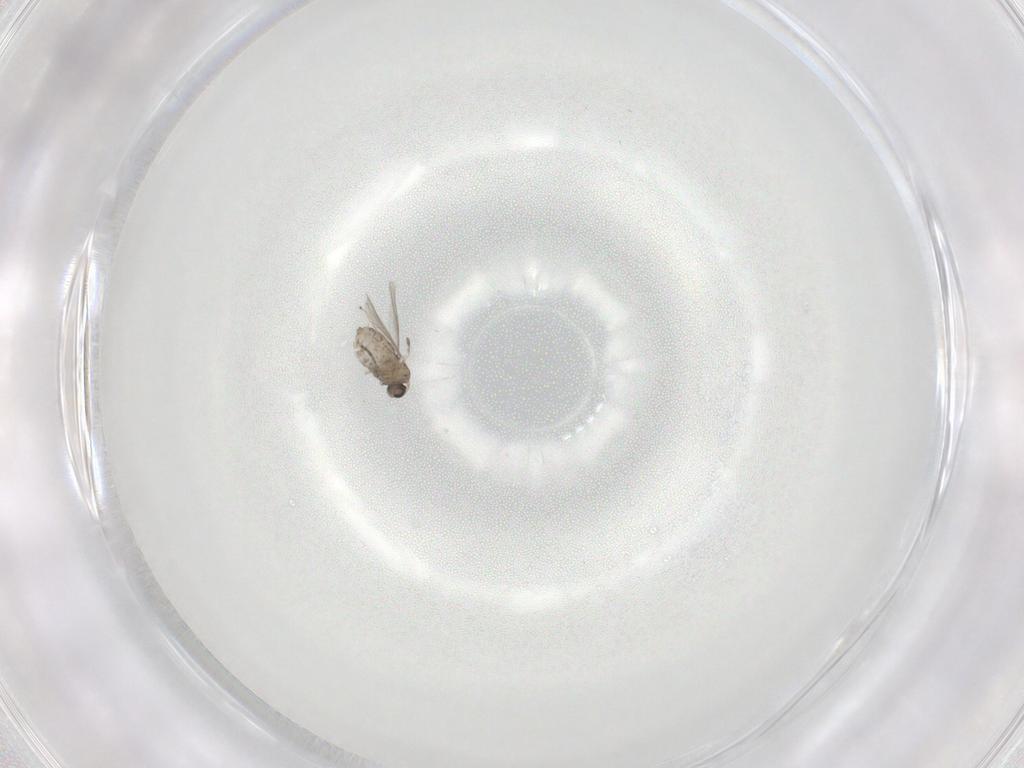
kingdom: Animalia
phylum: Arthropoda
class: Insecta
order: Diptera
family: Cecidomyiidae
